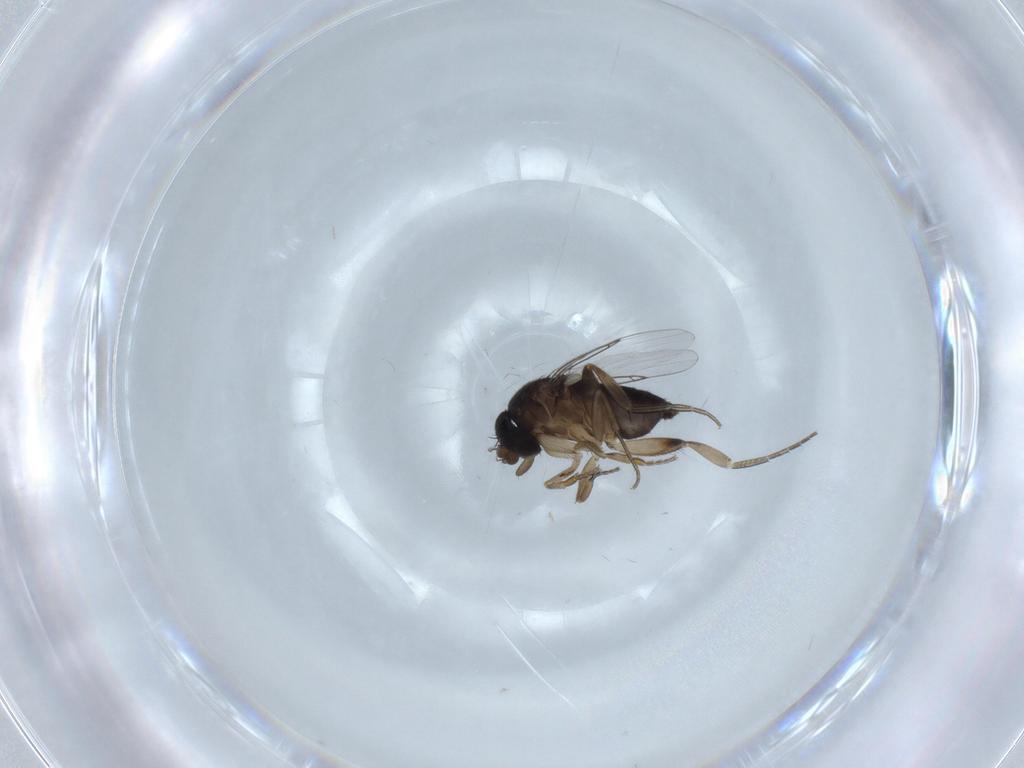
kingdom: Animalia
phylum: Arthropoda
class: Insecta
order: Diptera
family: Phoridae
